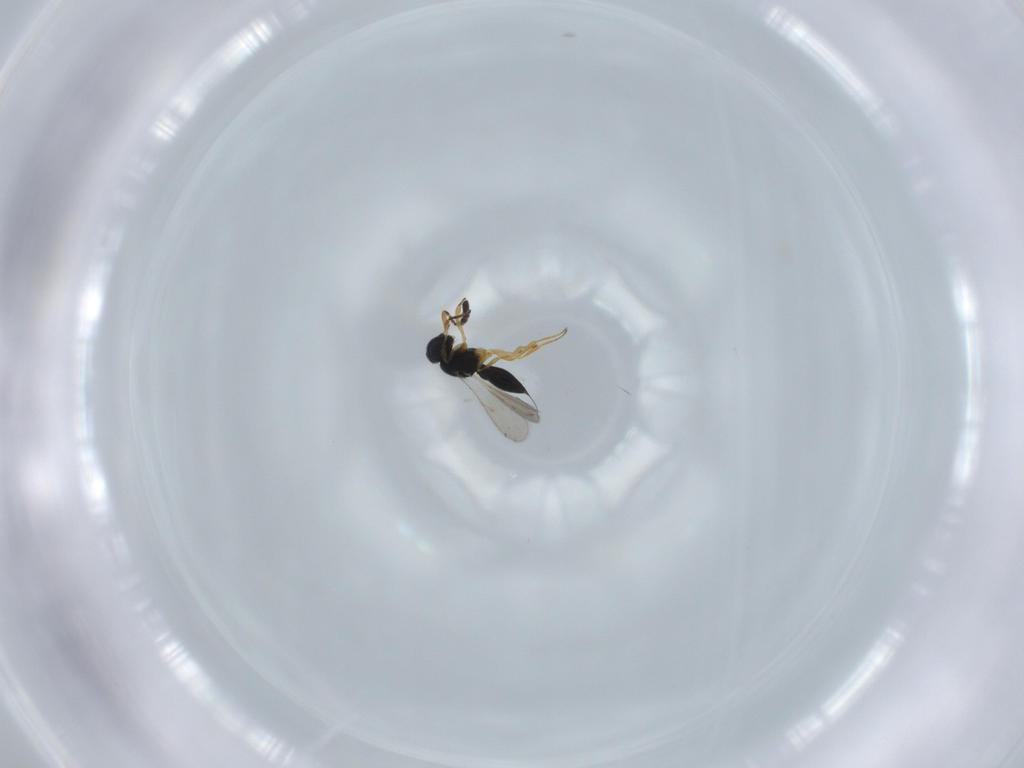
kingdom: Animalia
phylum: Arthropoda
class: Insecta
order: Hymenoptera
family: Scelionidae
